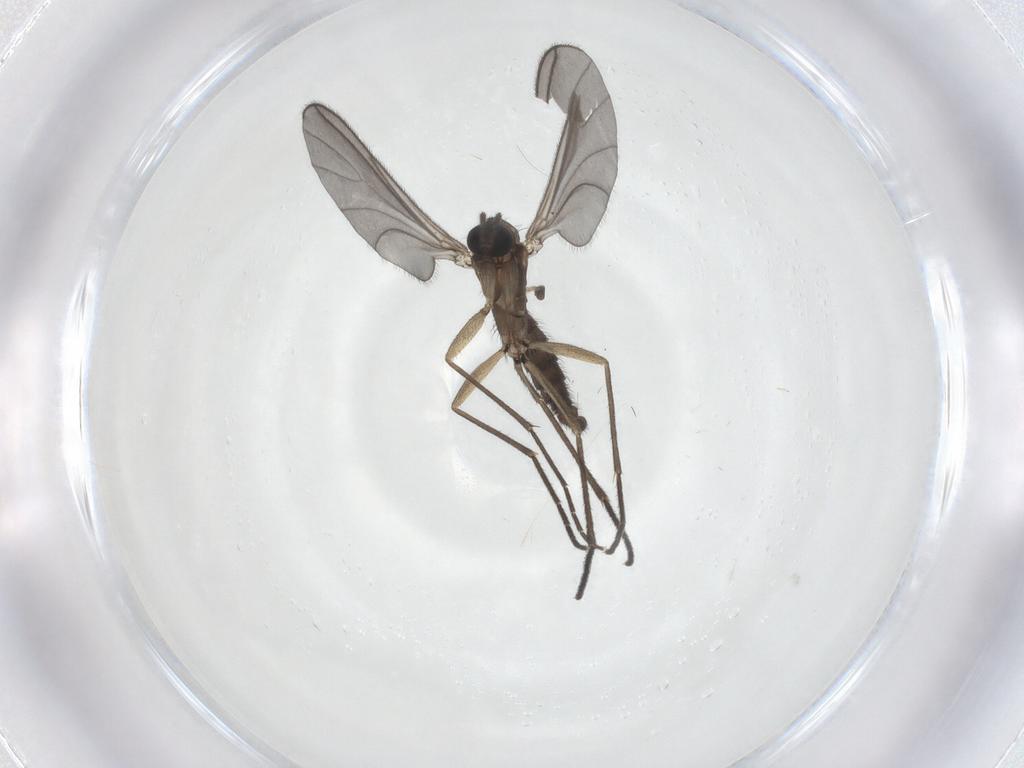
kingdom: Animalia
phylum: Arthropoda
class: Insecta
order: Diptera
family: Sciaridae
